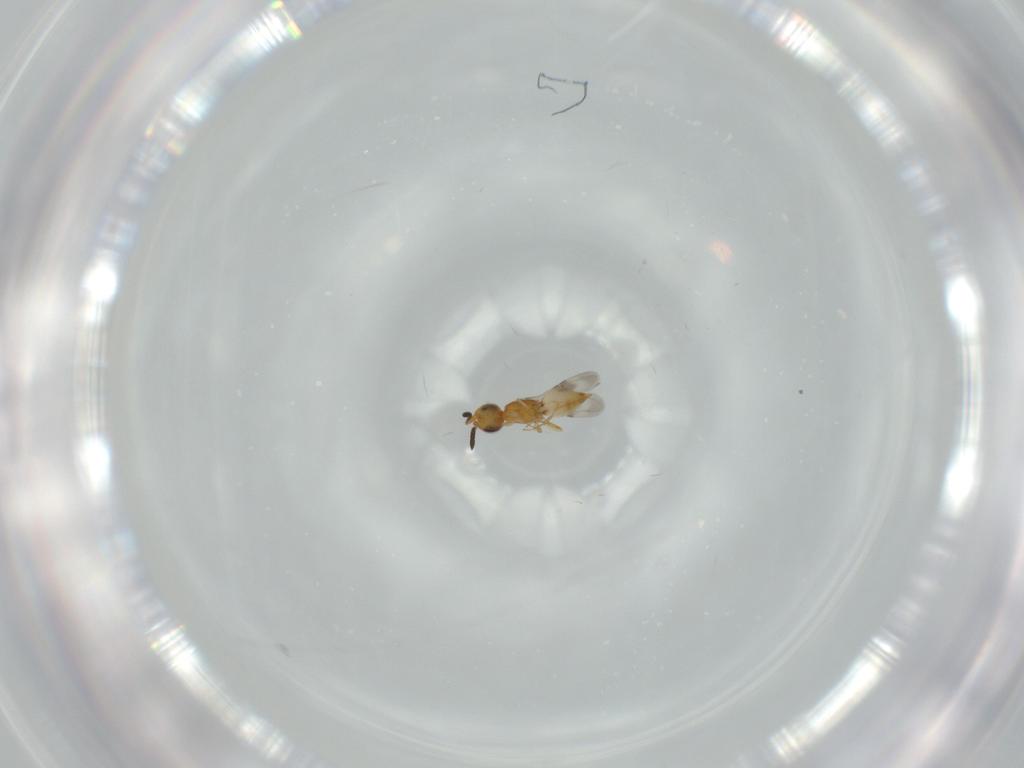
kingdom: Animalia
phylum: Arthropoda
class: Insecta
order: Hymenoptera
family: Ceraphronidae
